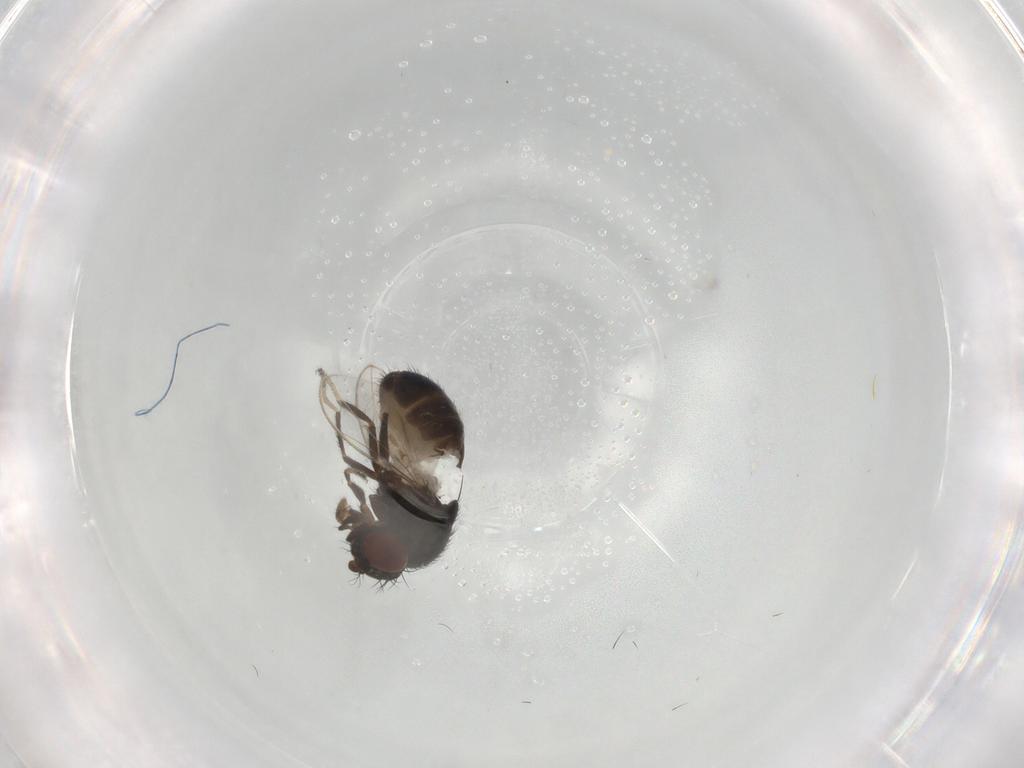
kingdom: Animalia
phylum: Arthropoda
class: Insecta
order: Diptera
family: Ephydridae
